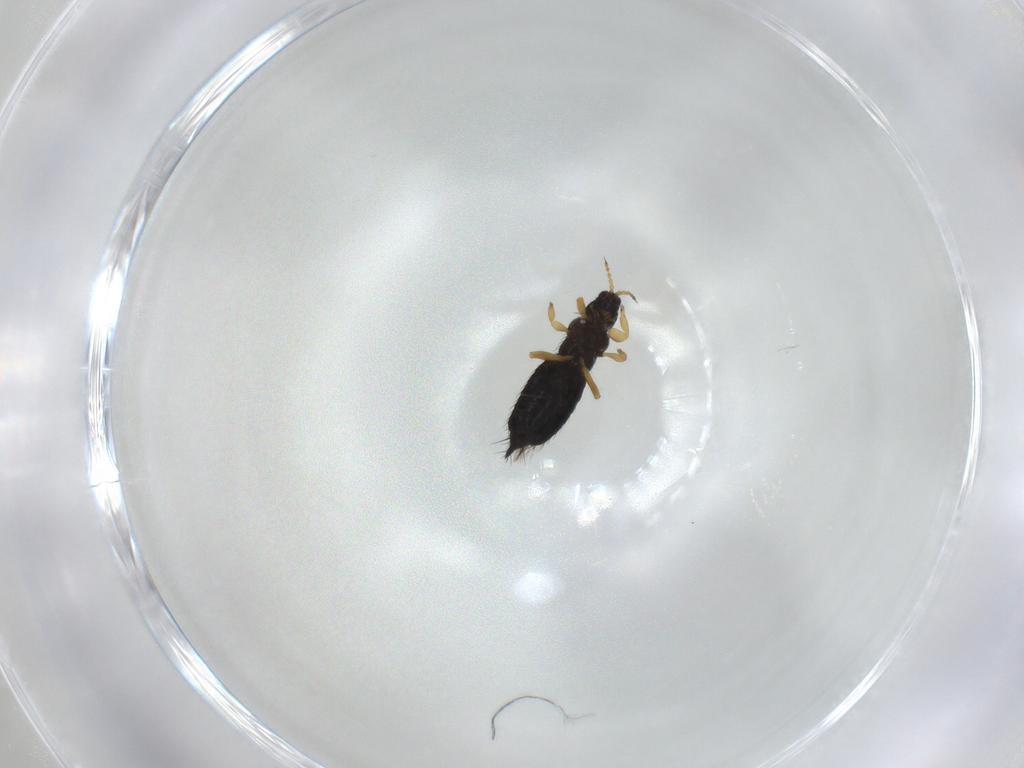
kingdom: Animalia
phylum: Arthropoda
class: Insecta
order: Thysanoptera
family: Thripidae
